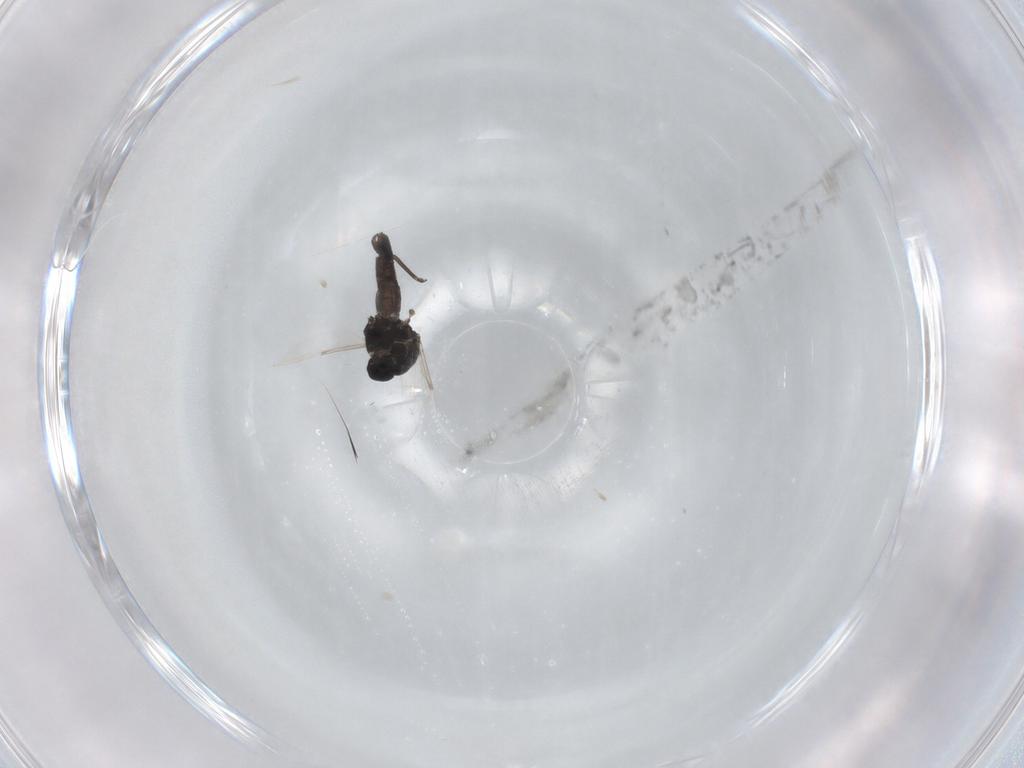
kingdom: Animalia
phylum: Arthropoda
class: Insecta
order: Diptera
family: Ceratopogonidae
